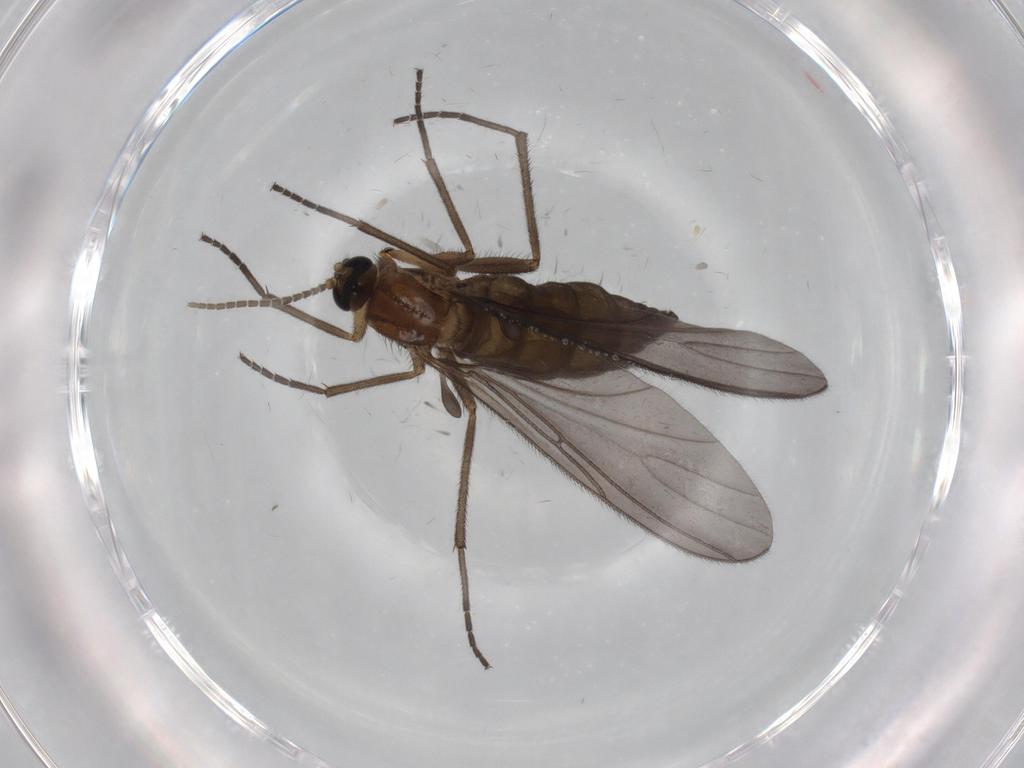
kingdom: Animalia
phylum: Arthropoda
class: Insecta
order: Diptera
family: Sciaridae
